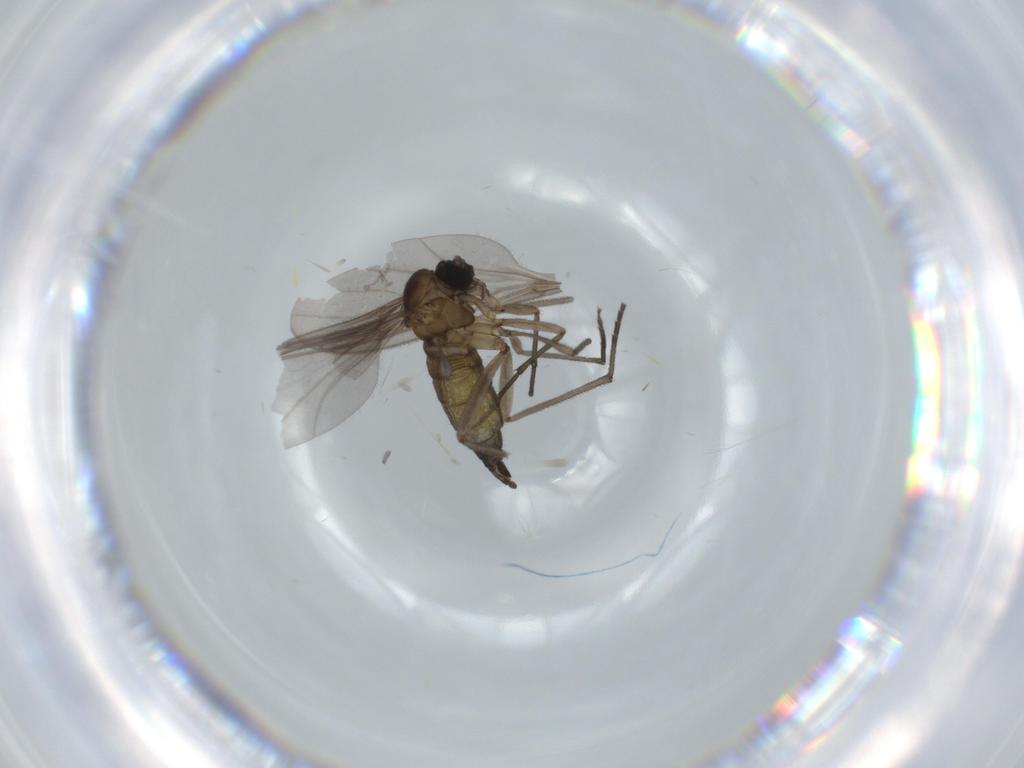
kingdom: Animalia
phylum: Arthropoda
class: Insecta
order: Diptera
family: Sciaridae
